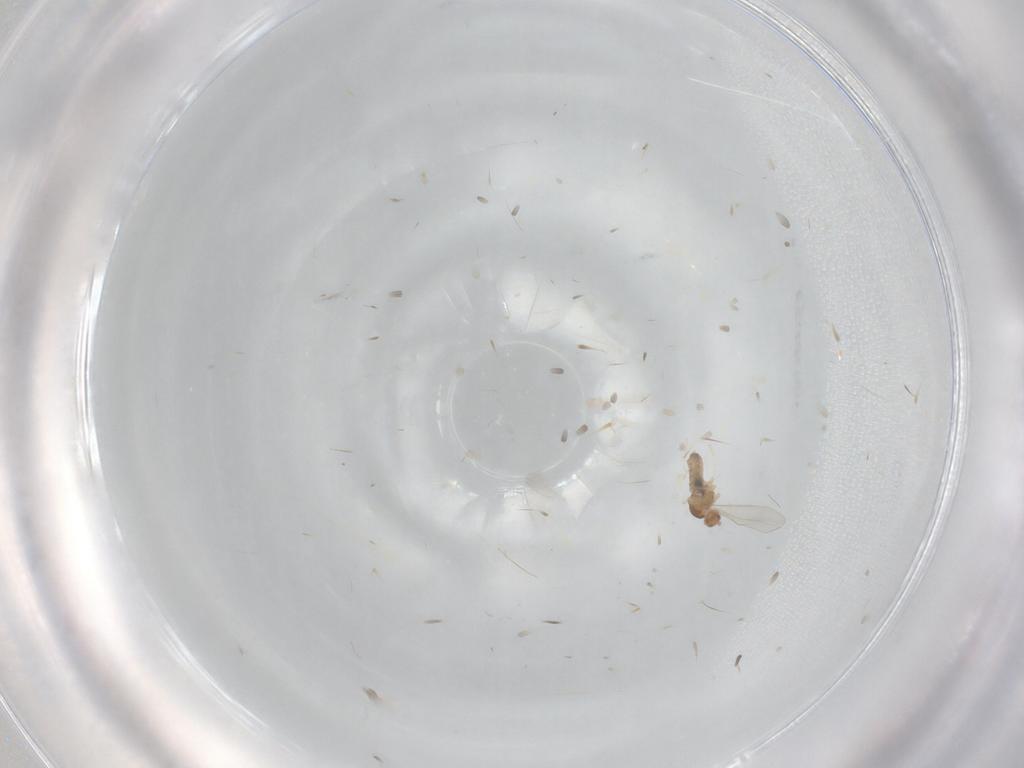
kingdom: Animalia
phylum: Arthropoda
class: Insecta
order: Diptera
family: Cecidomyiidae
